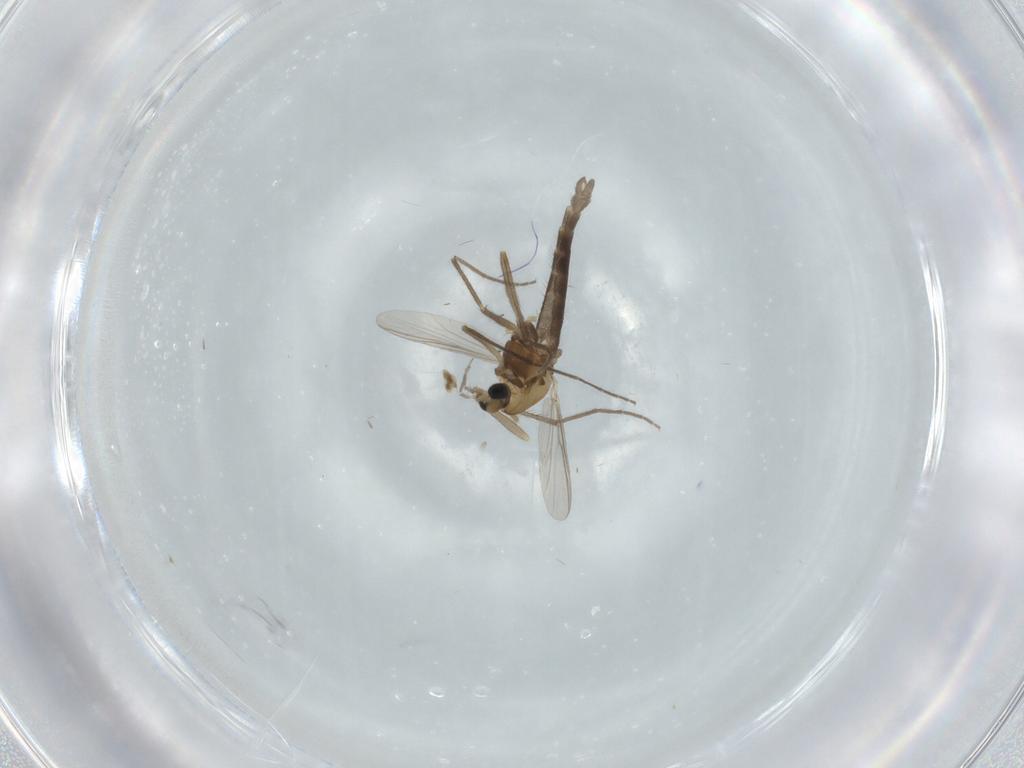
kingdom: Animalia
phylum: Arthropoda
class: Insecta
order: Diptera
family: Chironomidae
